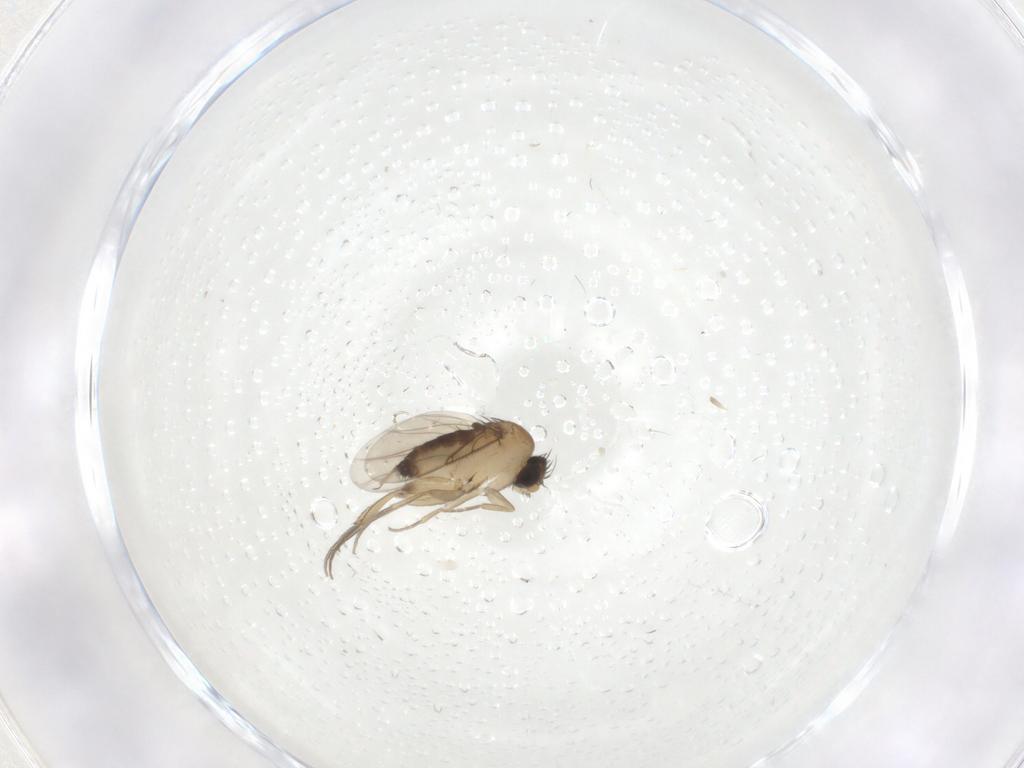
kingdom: Animalia
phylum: Arthropoda
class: Insecta
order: Diptera
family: Phoridae
